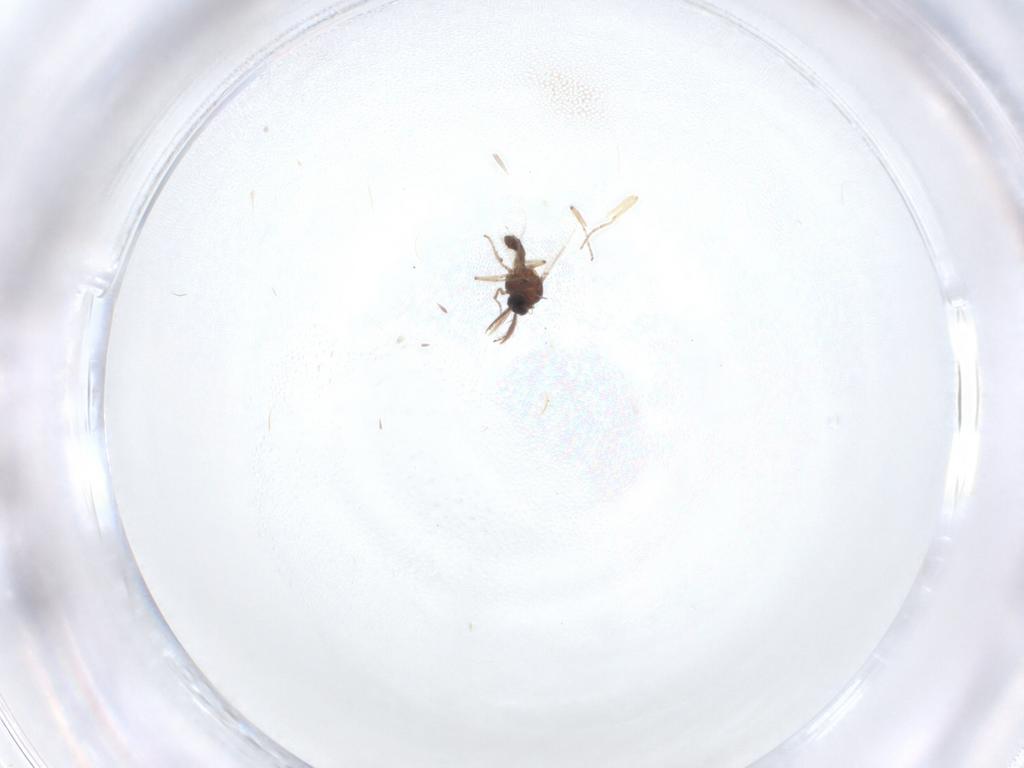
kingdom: Animalia
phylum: Arthropoda
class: Insecta
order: Diptera
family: Ceratopogonidae
